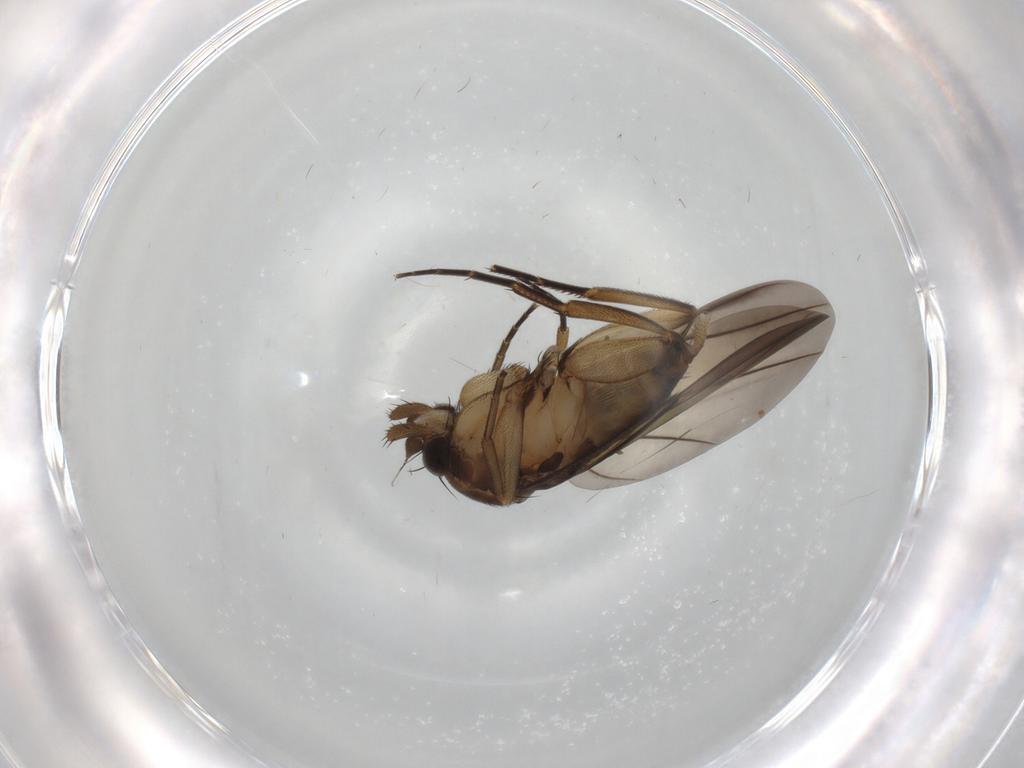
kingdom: Animalia
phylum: Arthropoda
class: Insecta
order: Diptera
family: Phoridae
